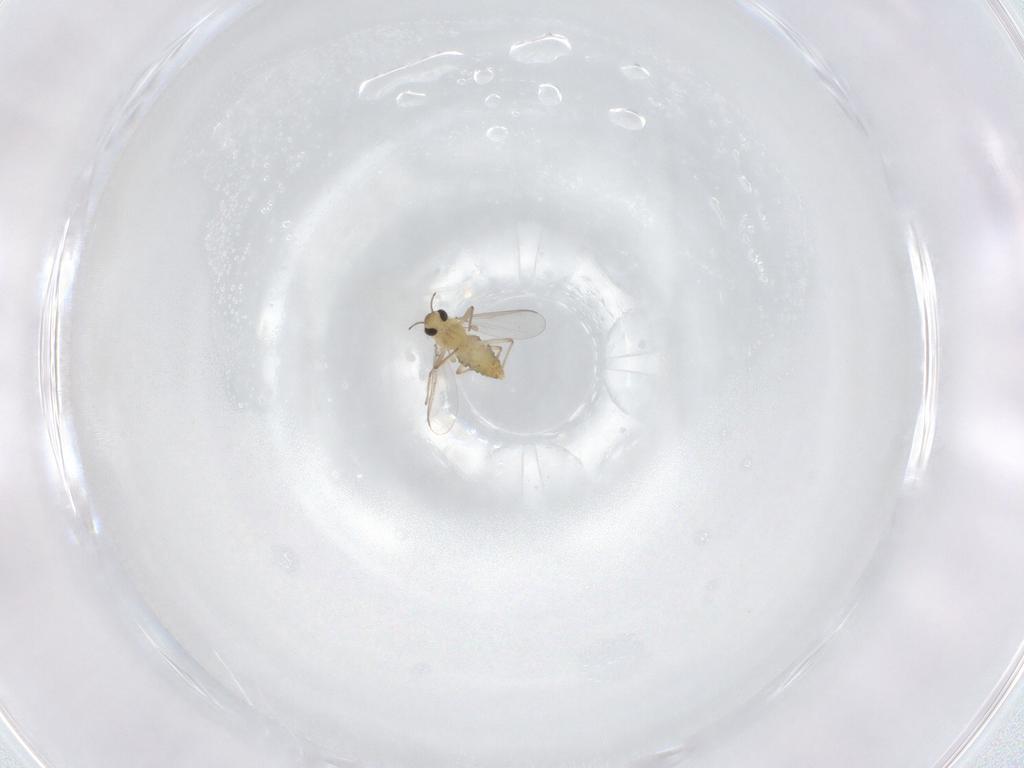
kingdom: Animalia
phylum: Arthropoda
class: Insecta
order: Diptera
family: Chironomidae
